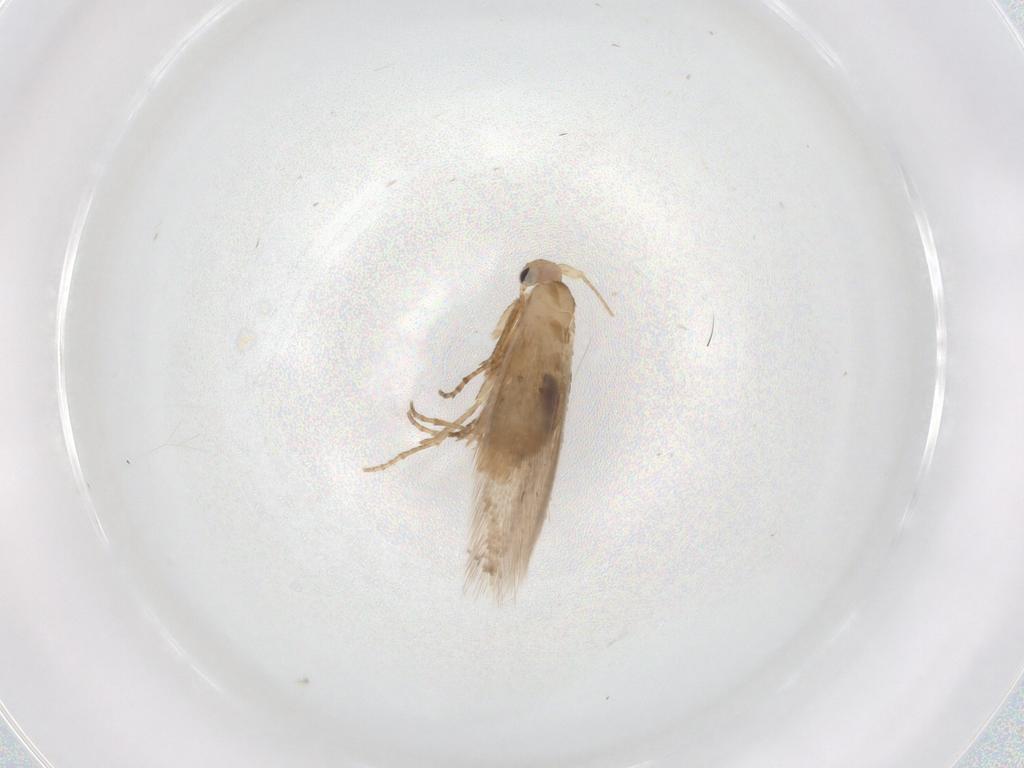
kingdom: Animalia
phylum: Arthropoda
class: Insecta
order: Lepidoptera
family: Bucculatricidae
